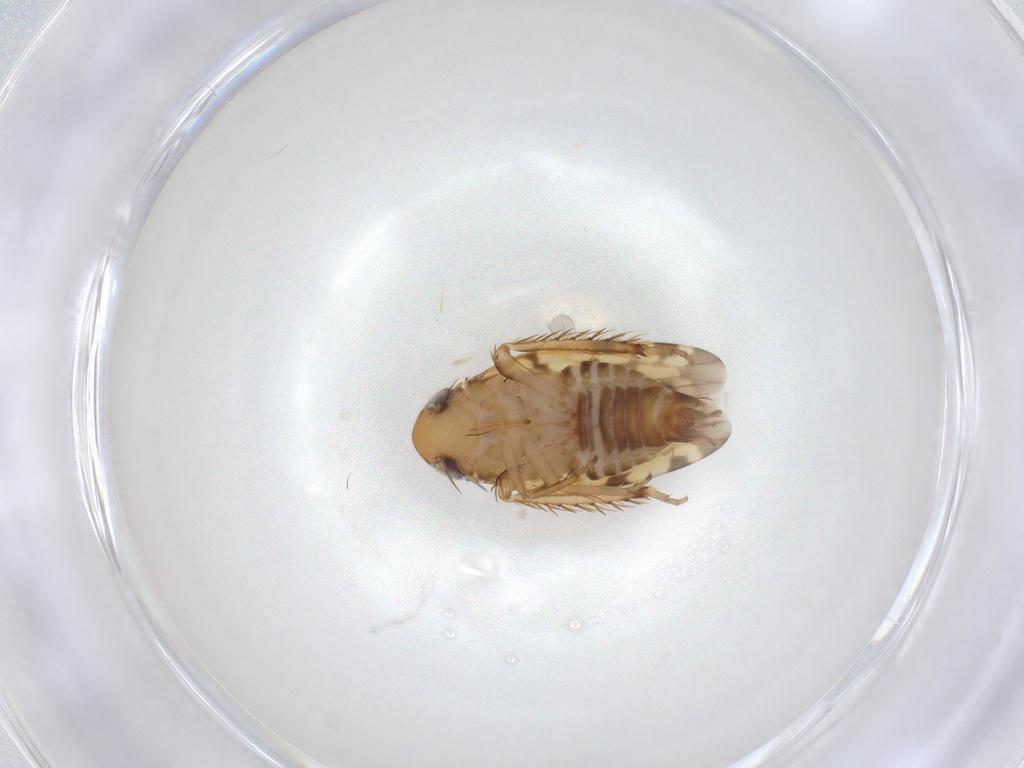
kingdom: Animalia
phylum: Arthropoda
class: Insecta
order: Hemiptera
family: Cicadellidae
